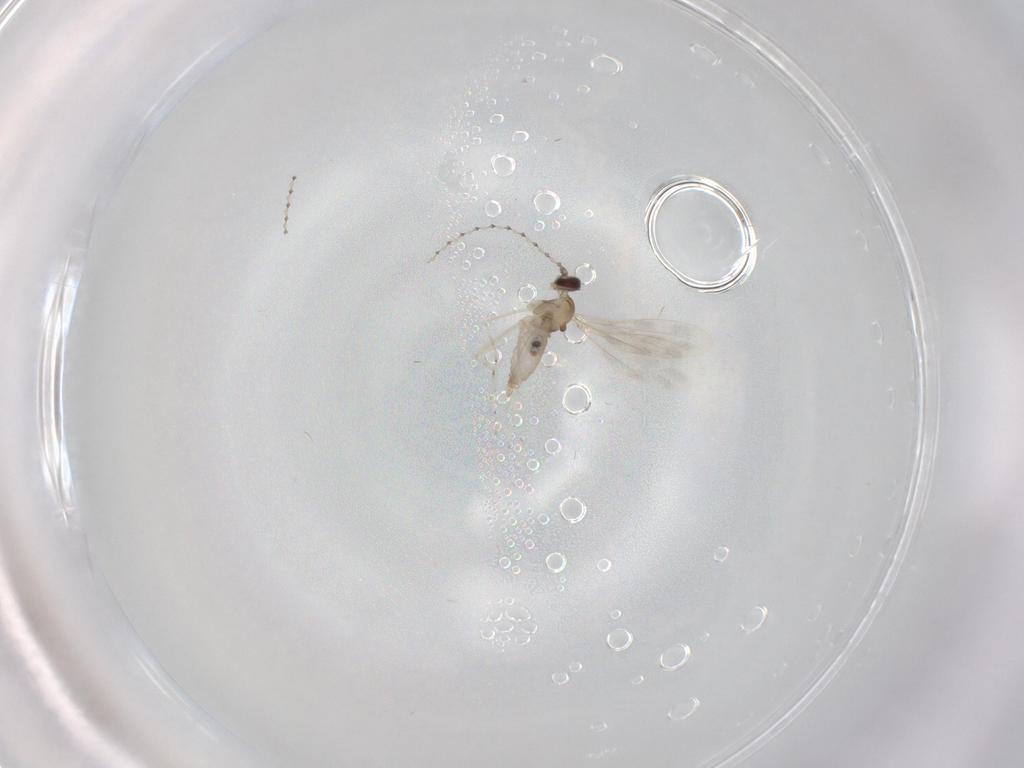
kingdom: Animalia
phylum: Arthropoda
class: Insecta
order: Diptera
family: Cecidomyiidae
